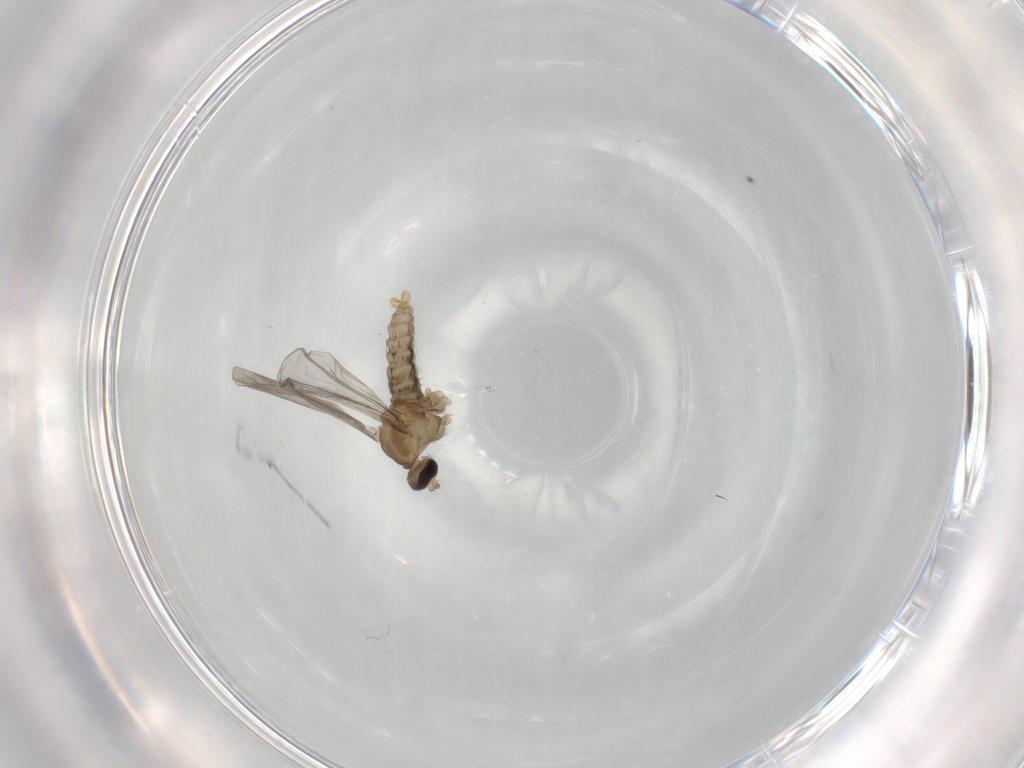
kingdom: Animalia
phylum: Arthropoda
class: Insecta
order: Diptera
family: Cecidomyiidae
